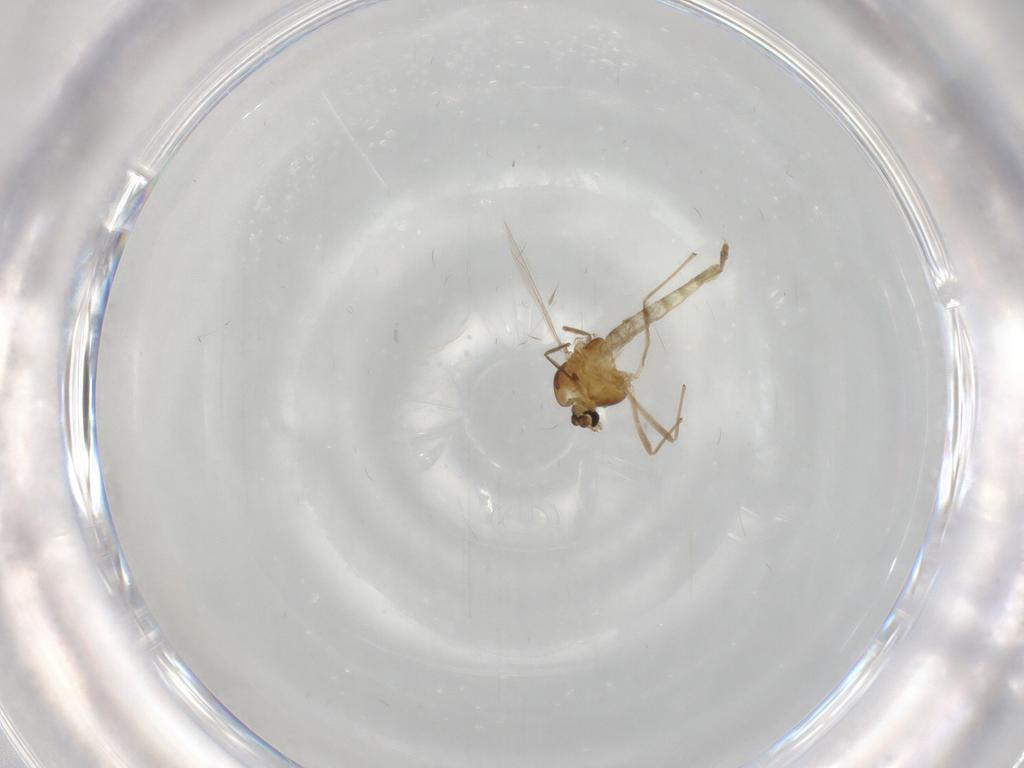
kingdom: Animalia
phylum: Arthropoda
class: Insecta
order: Diptera
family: Chironomidae
